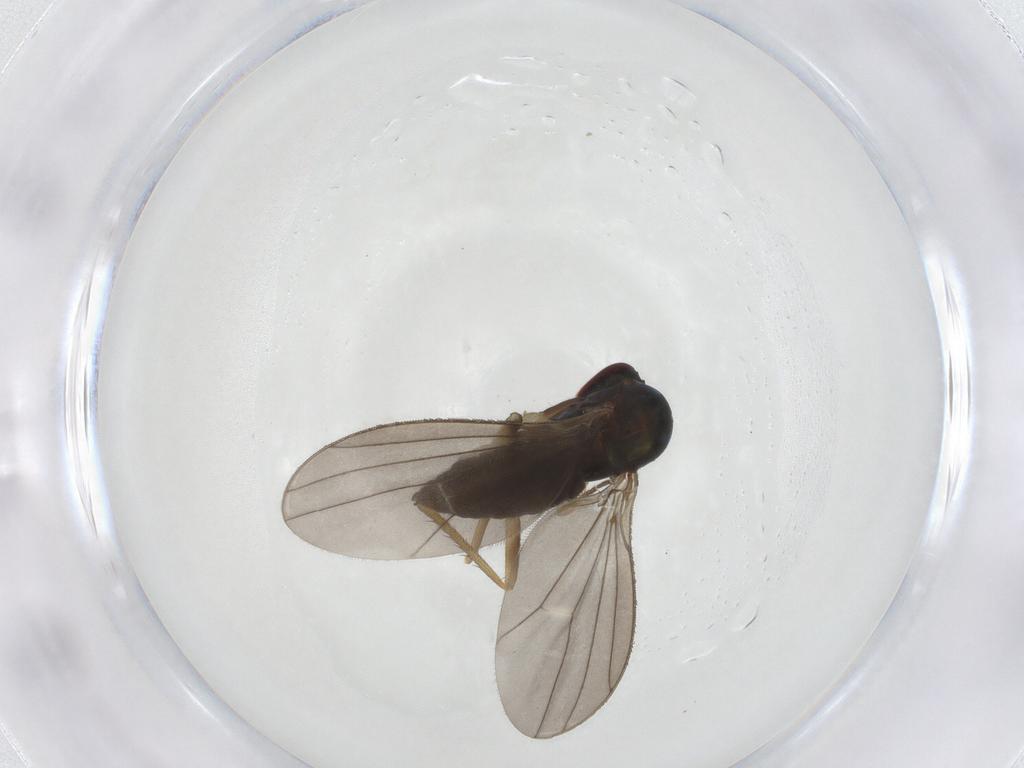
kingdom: Animalia
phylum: Arthropoda
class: Insecta
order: Diptera
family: Dolichopodidae
